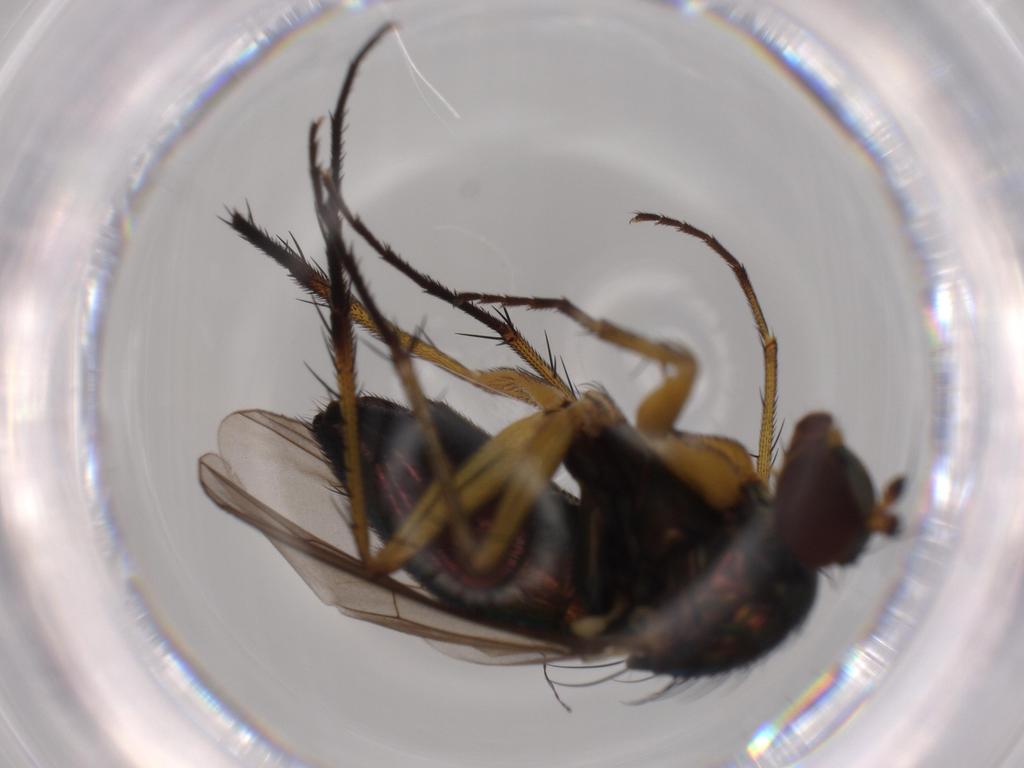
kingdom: Animalia
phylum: Arthropoda
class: Insecta
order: Diptera
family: Dolichopodidae
